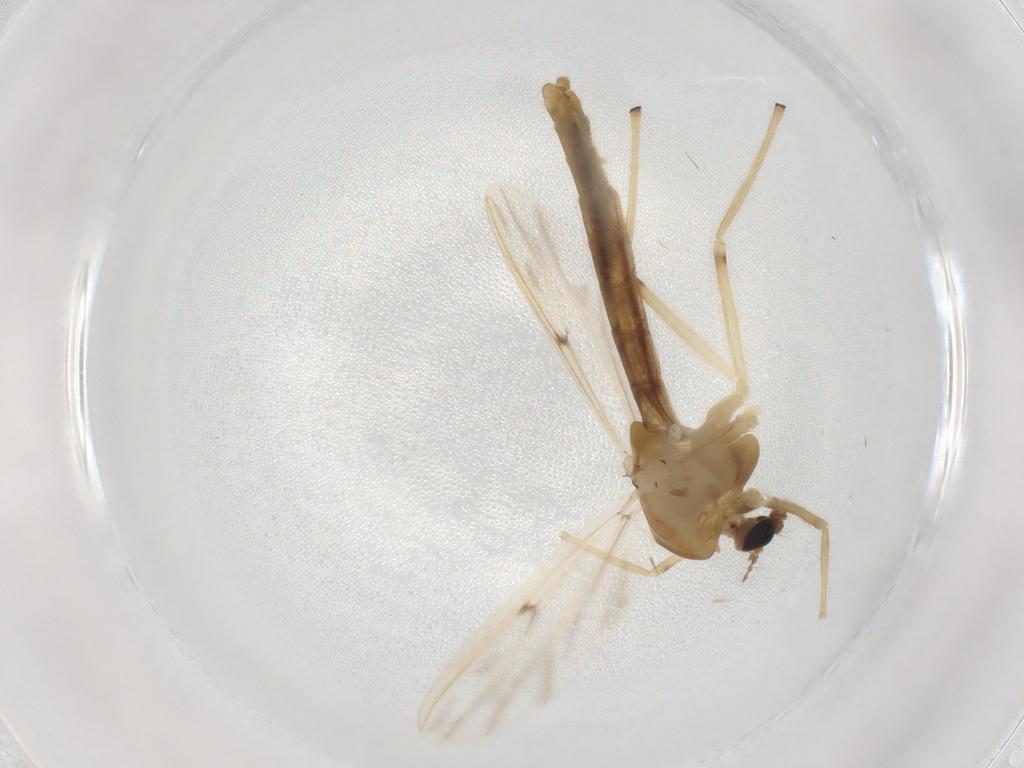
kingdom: Animalia
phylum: Arthropoda
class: Insecta
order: Diptera
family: Chironomidae
